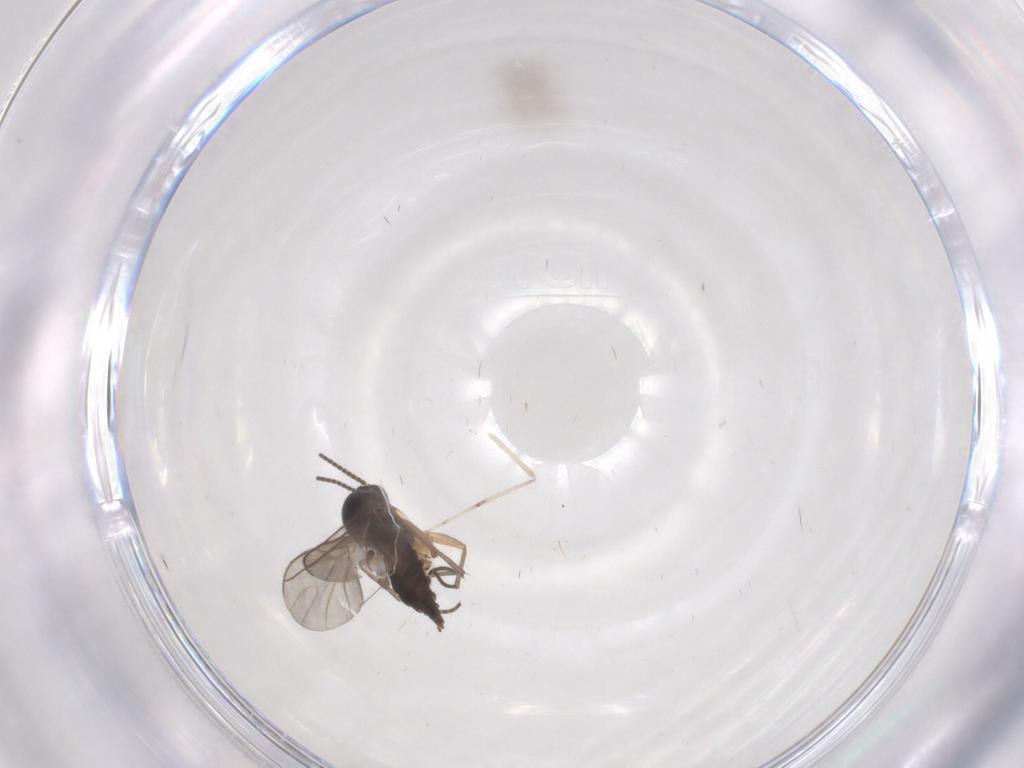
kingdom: Animalia
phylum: Arthropoda
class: Insecta
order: Diptera
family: Sciaridae
